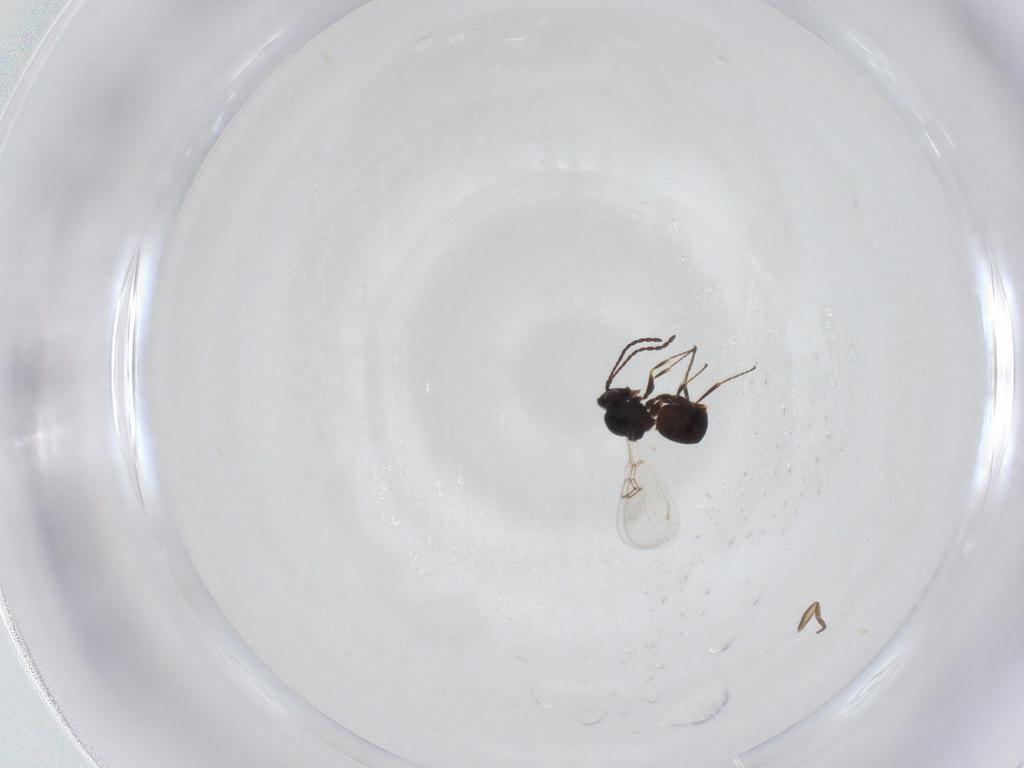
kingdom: Animalia
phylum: Arthropoda
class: Insecta
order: Hymenoptera
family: Figitidae
